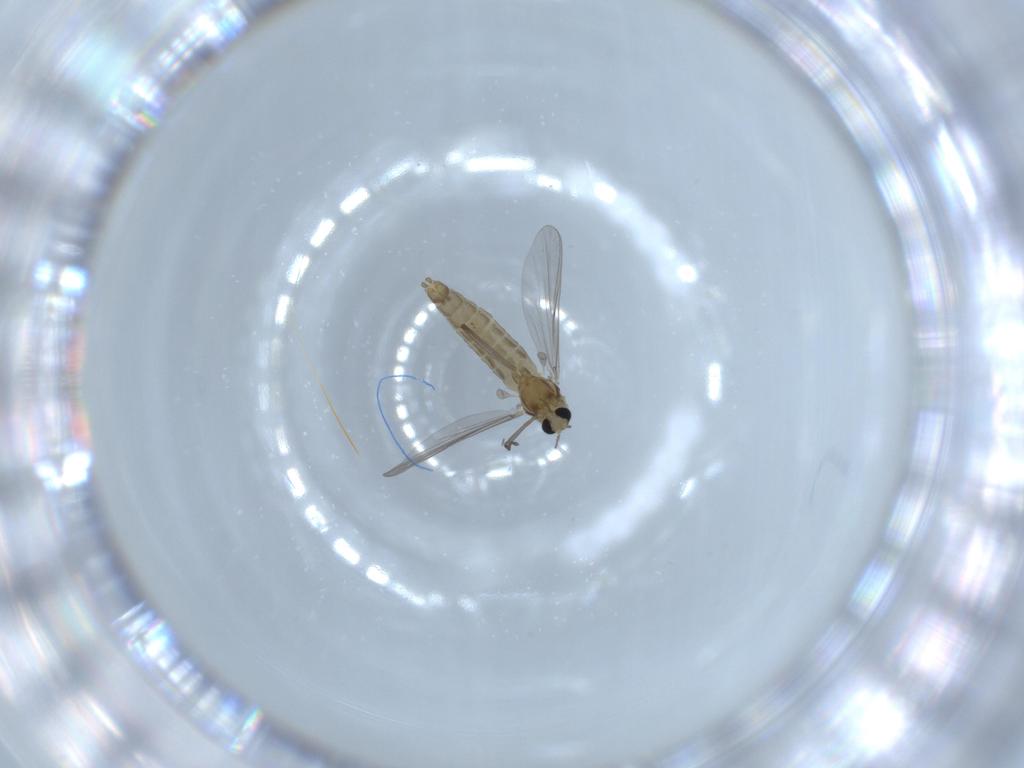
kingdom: Animalia
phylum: Arthropoda
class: Insecta
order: Diptera
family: Chironomidae
